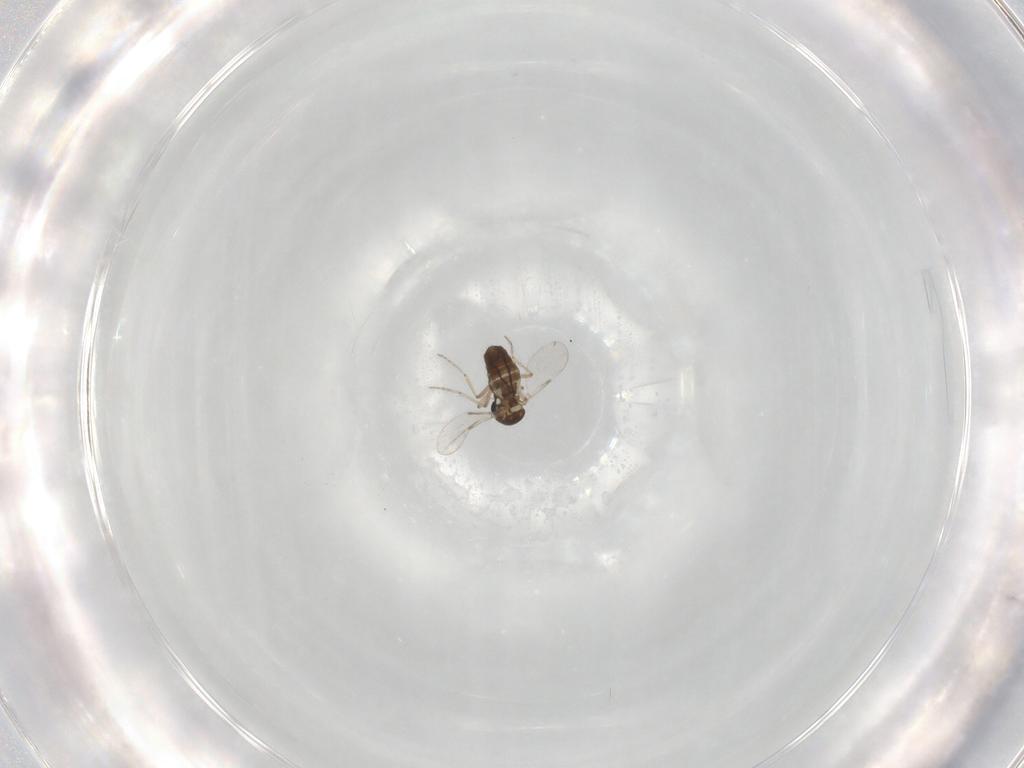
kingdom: Animalia
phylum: Arthropoda
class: Insecta
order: Diptera
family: Ceratopogonidae
